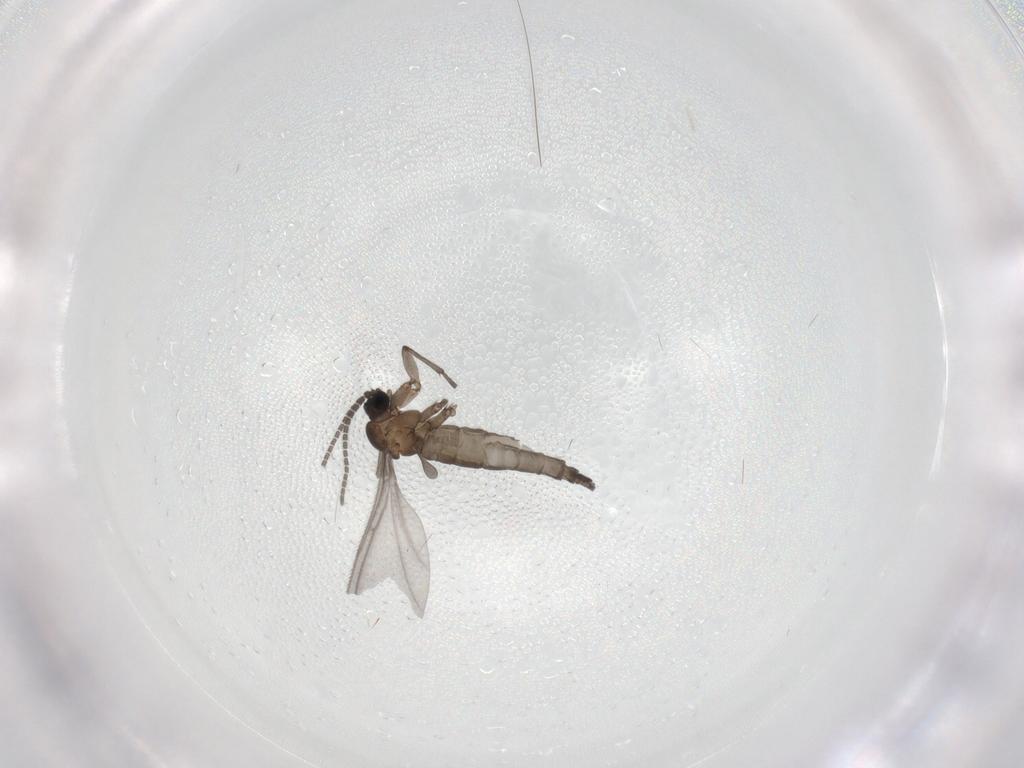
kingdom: Animalia
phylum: Arthropoda
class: Insecta
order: Diptera
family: Sciaridae
